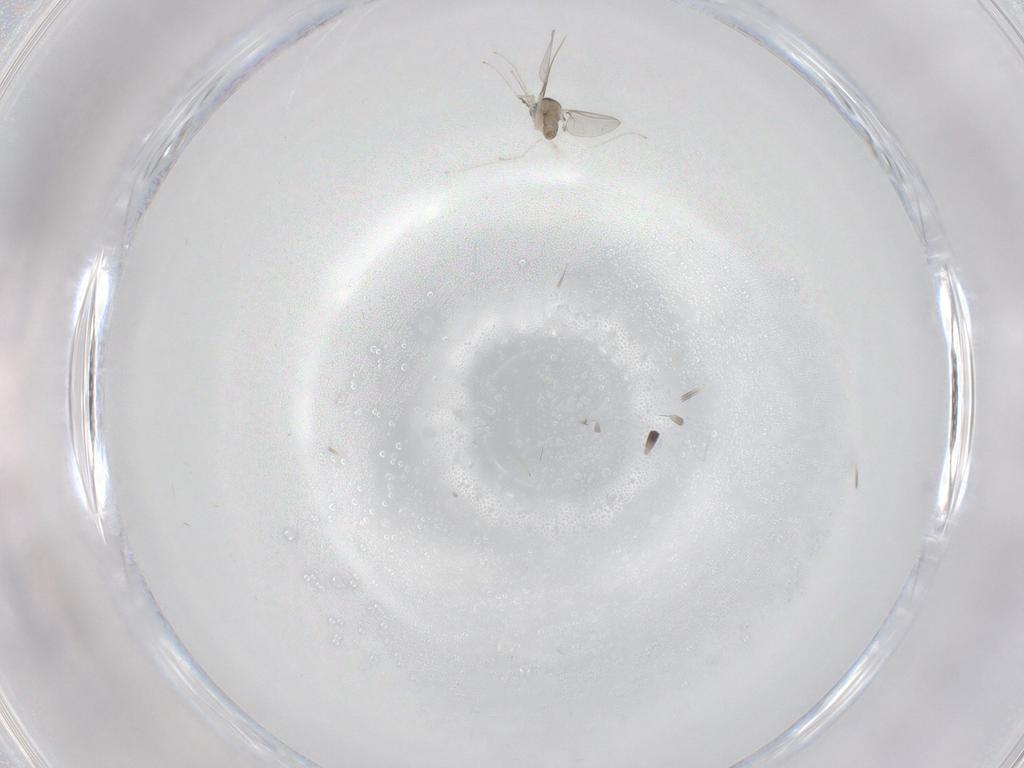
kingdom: Animalia
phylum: Arthropoda
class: Insecta
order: Diptera
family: Cecidomyiidae
